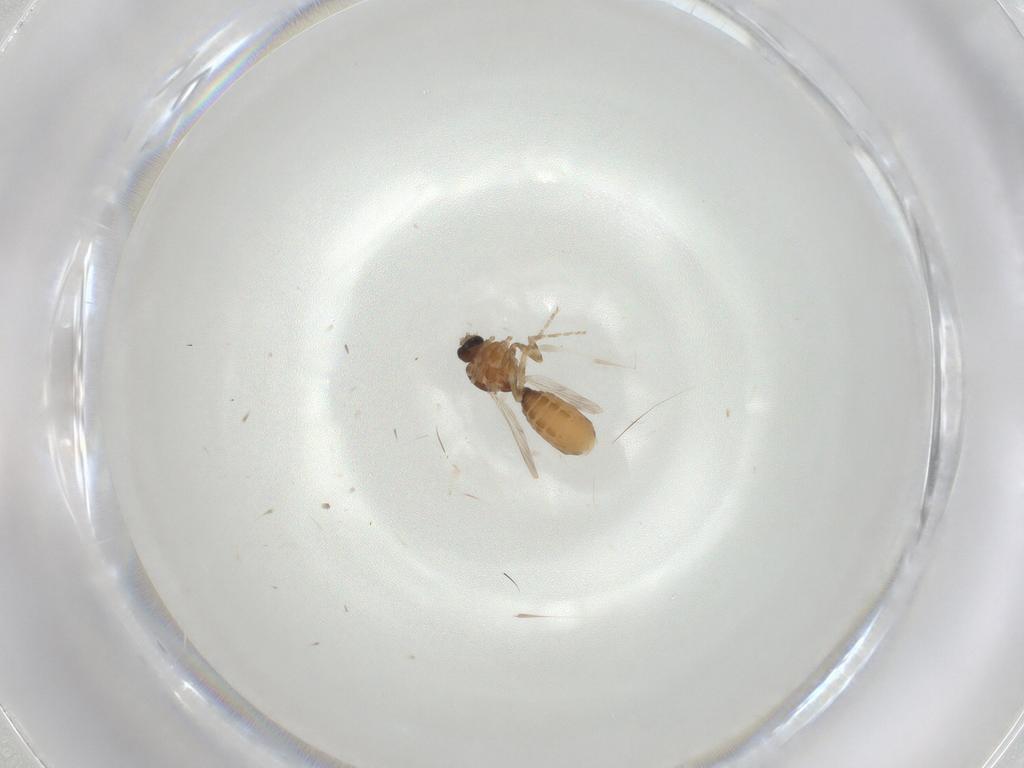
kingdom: Animalia
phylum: Arthropoda
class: Insecta
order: Diptera
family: Ceratopogonidae
